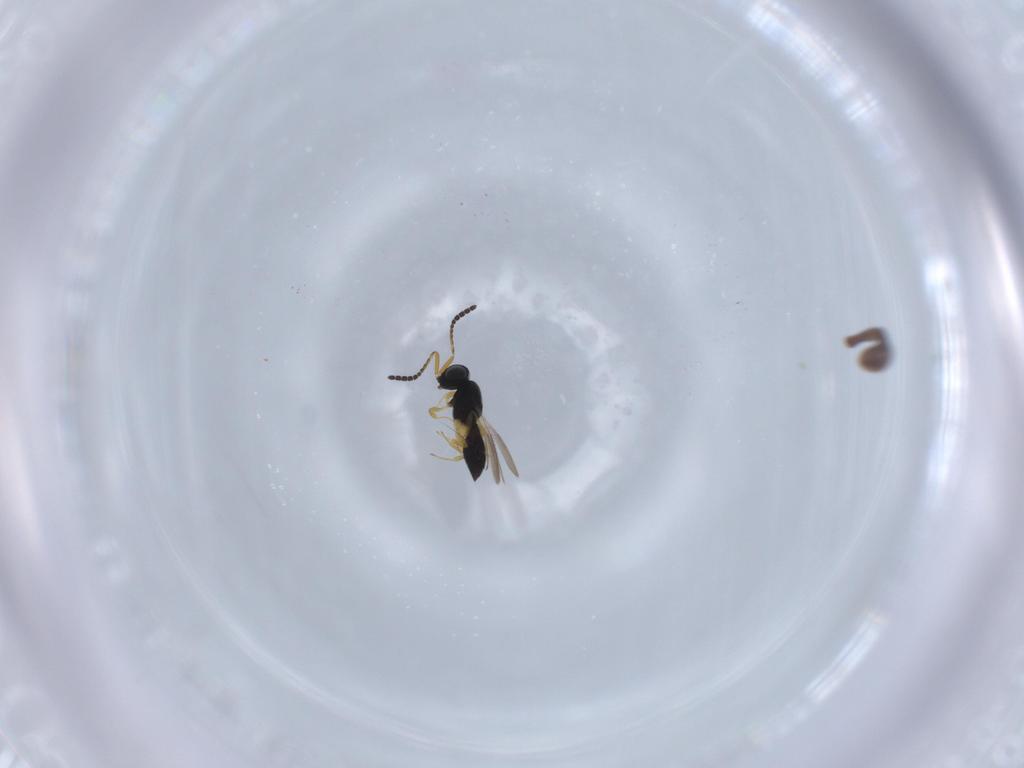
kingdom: Animalia
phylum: Arthropoda
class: Insecta
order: Hymenoptera
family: Scelionidae
